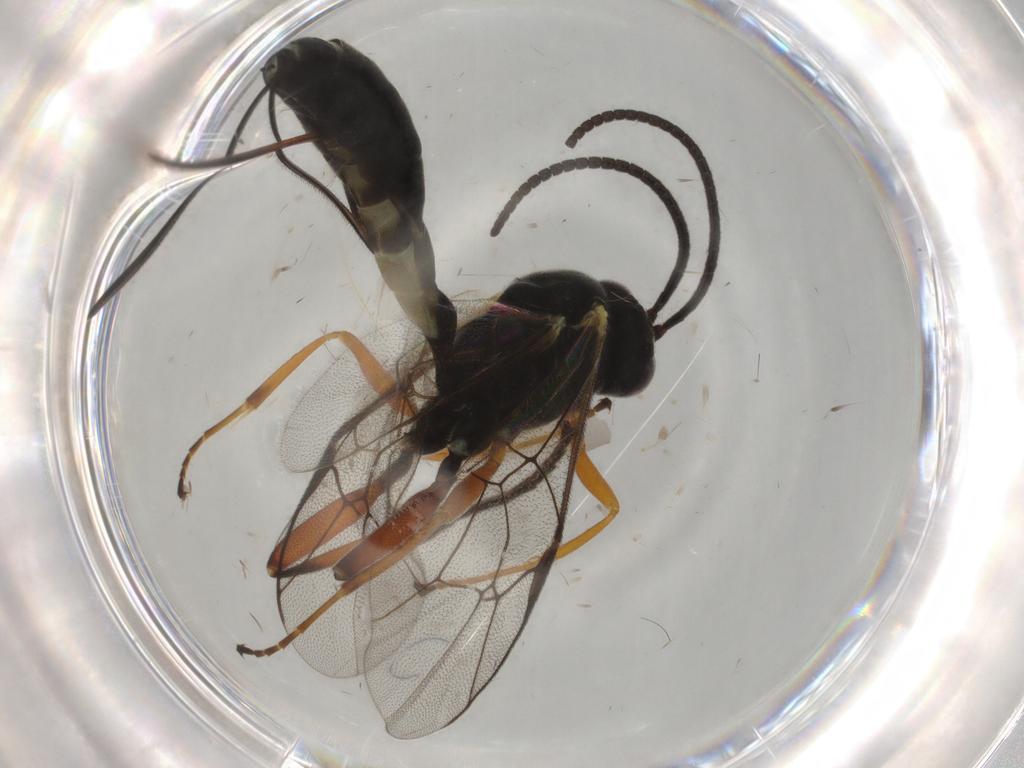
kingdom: Animalia
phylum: Arthropoda
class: Insecta
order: Hymenoptera
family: Ichneumonidae
